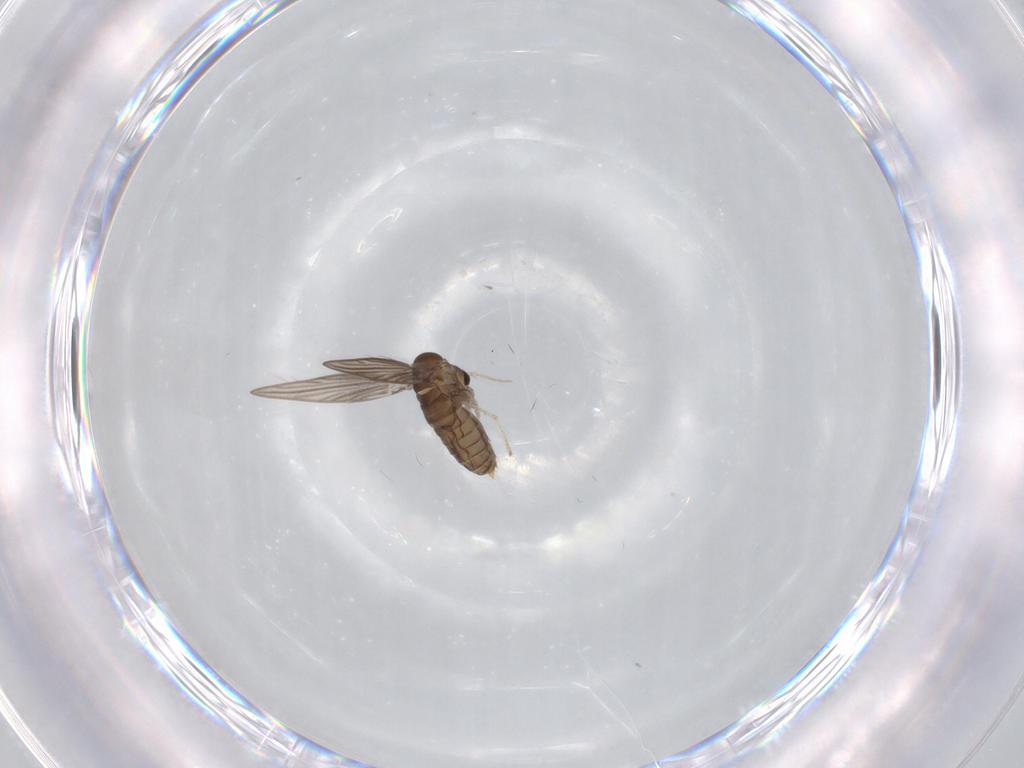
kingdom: Animalia
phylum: Arthropoda
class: Insecta
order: Diptera
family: Psychodidae
